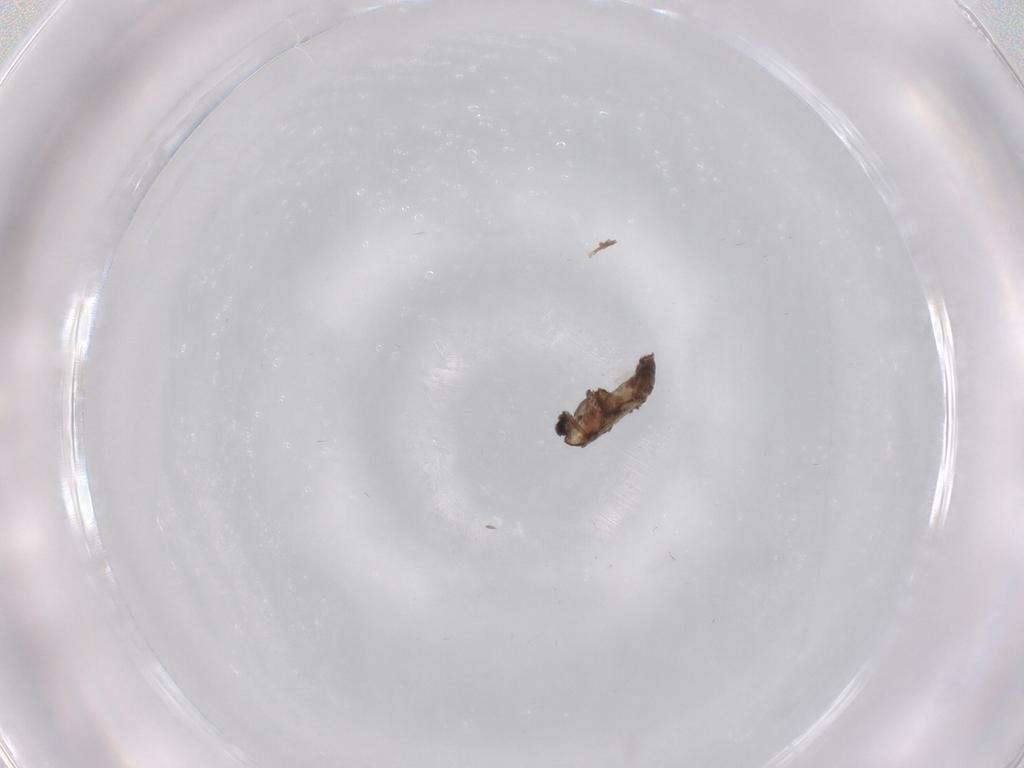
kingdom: Animalia
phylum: Arthropoda
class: Insecta
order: Diptera
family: Chironomidae
